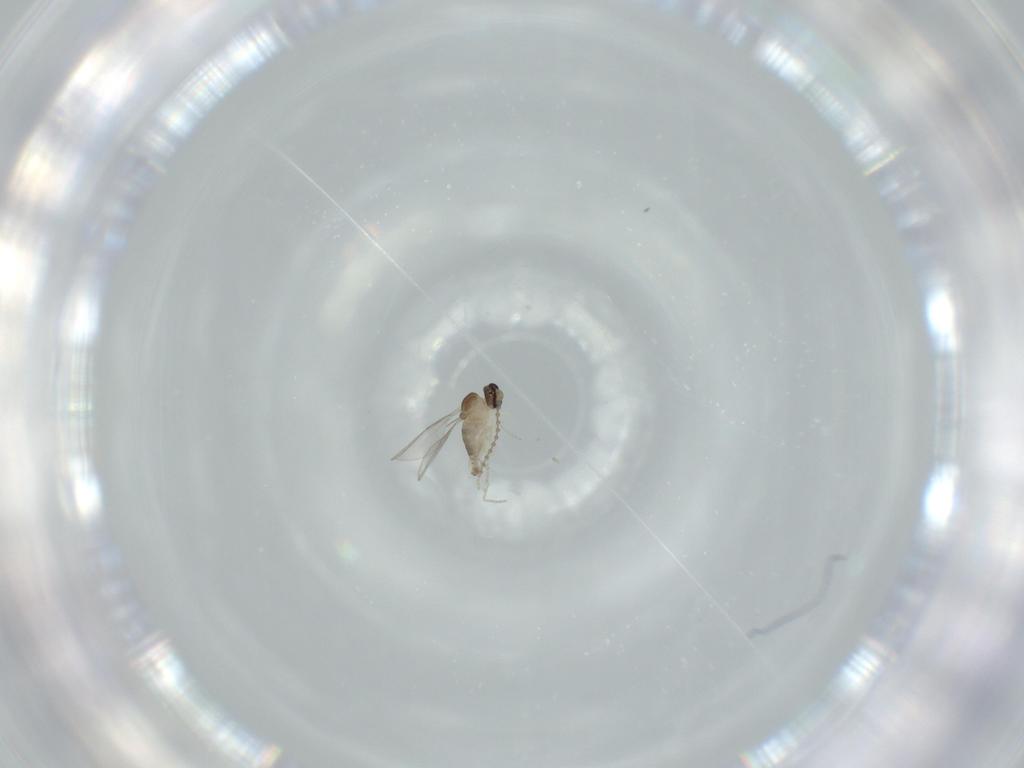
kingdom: Animalia
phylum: Arthropoda
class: Insecta
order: Diptera
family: Cecidomyiidae
